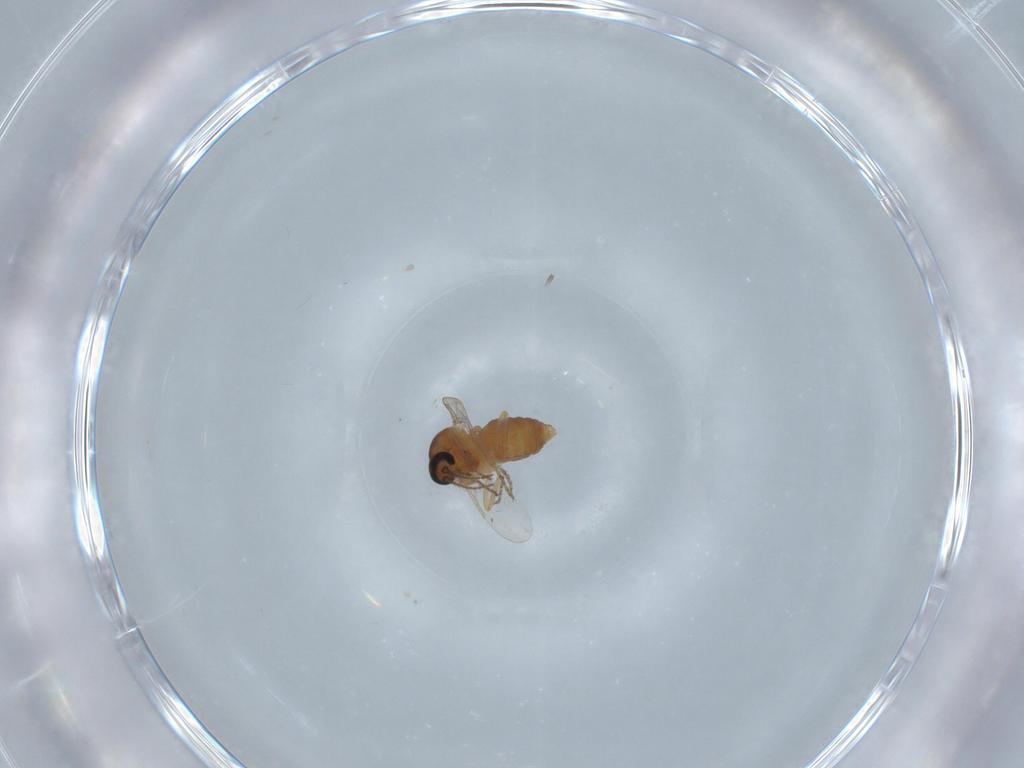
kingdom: Animalia
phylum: Arthropoda
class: Insecta
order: Diptera
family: Ceratopogonidae
